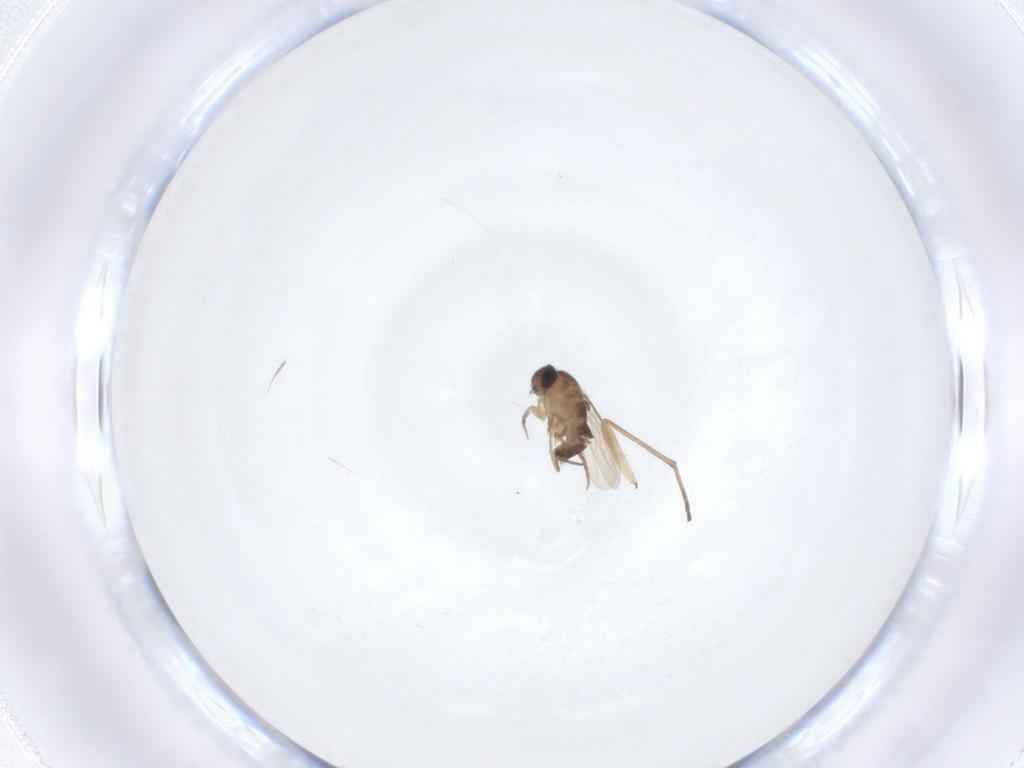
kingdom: Animalia
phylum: Arthropoda
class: Insecta
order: Diptera
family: Phoridae
